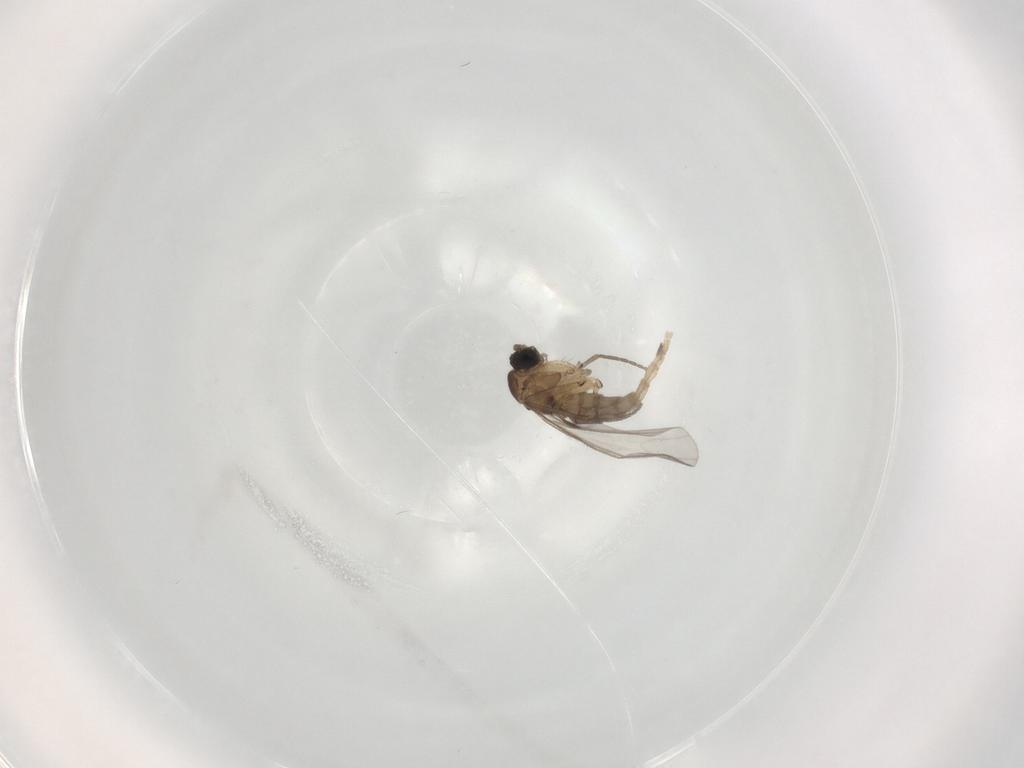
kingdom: Animalia
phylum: Arthropoda
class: Insecta
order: Diptera
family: Sciaridae
